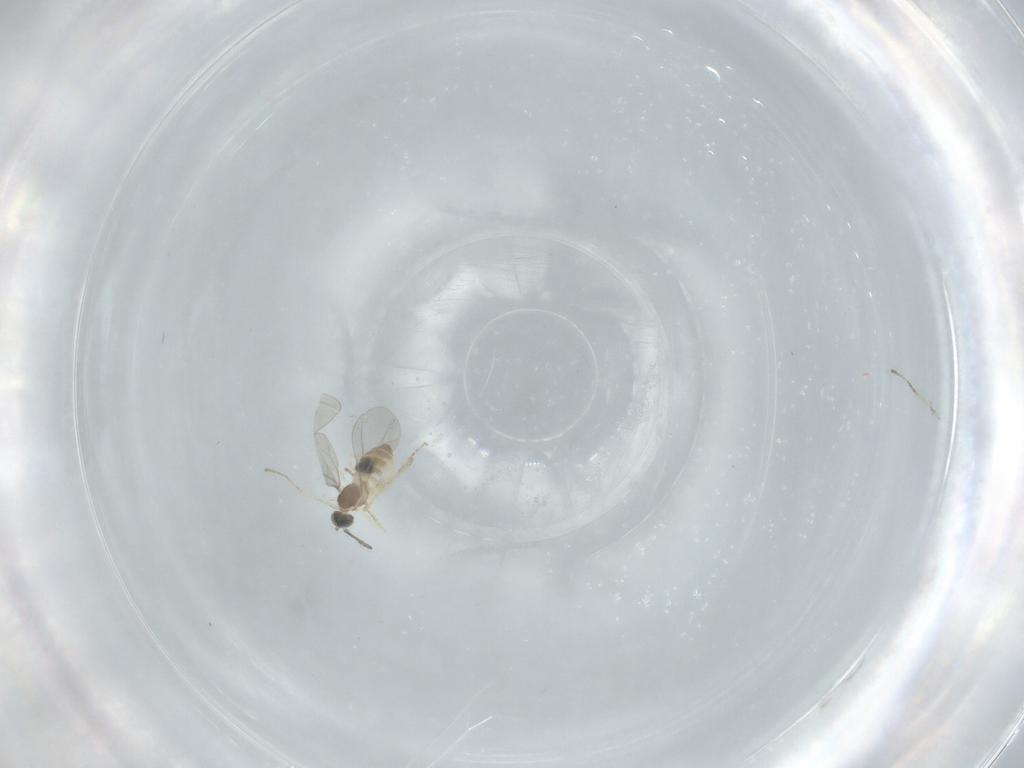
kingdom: Animalia
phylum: Arthropoda
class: Insecta
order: Diptera
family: Cecidomyiidae
